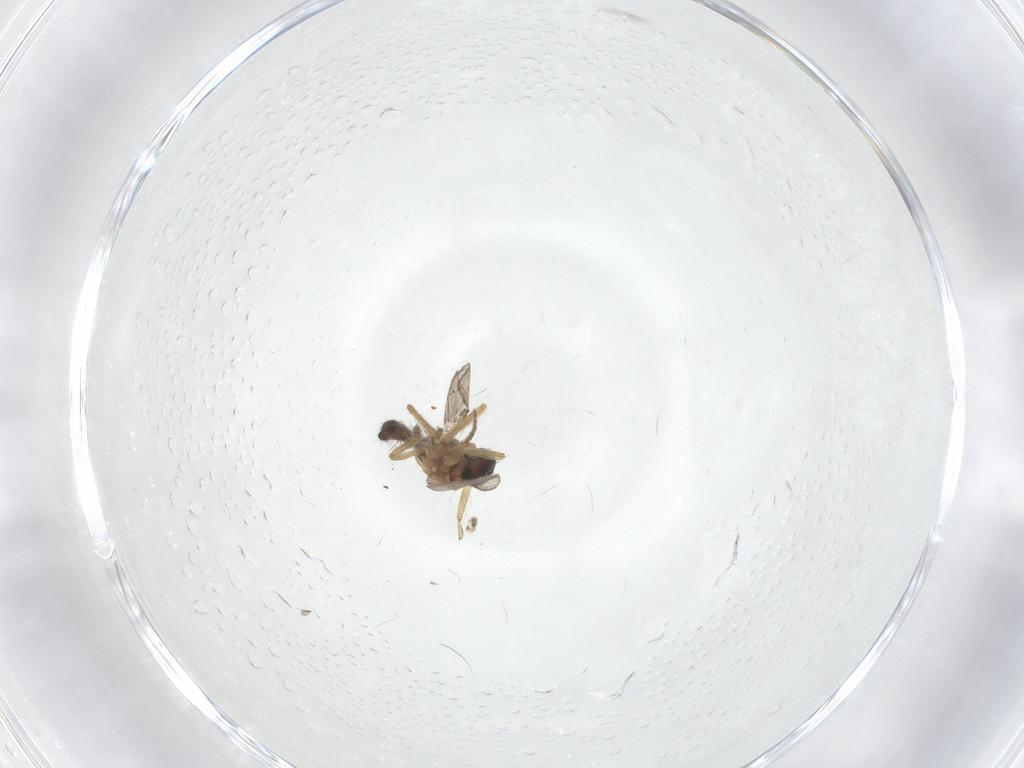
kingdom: Animalia
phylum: Arthropoda
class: Insecta
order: Diptera
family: Ceratopogonidae
